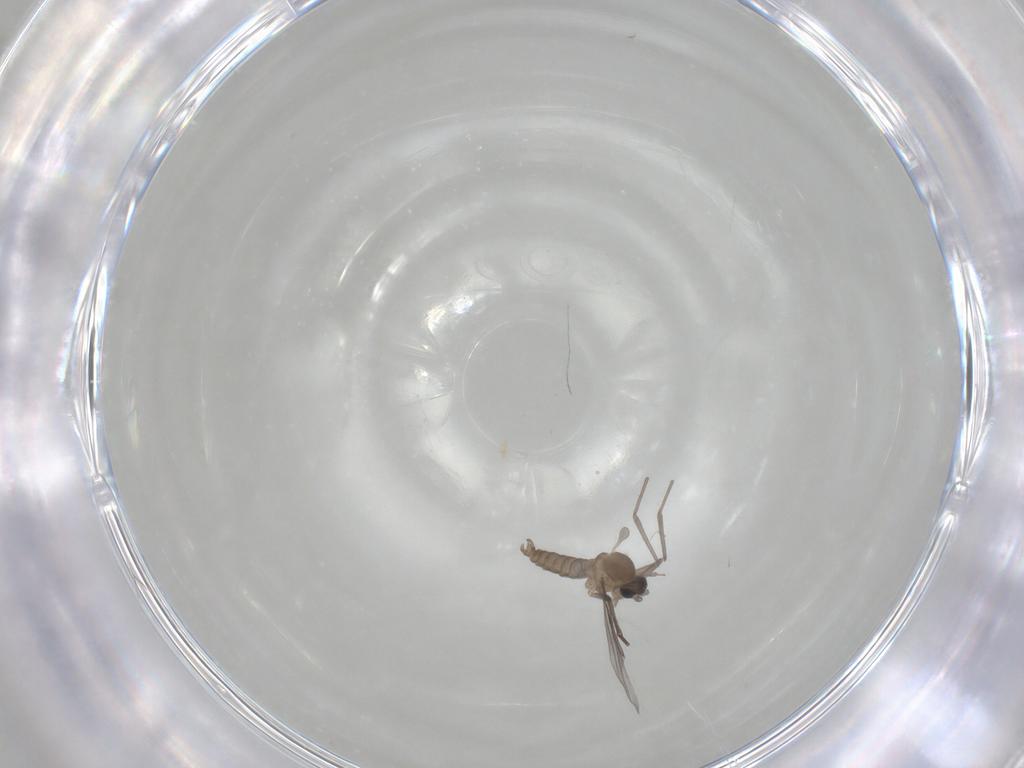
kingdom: Animalia
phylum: Arthropoda
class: Insecta
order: Diptera
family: Cecidomyiidae
